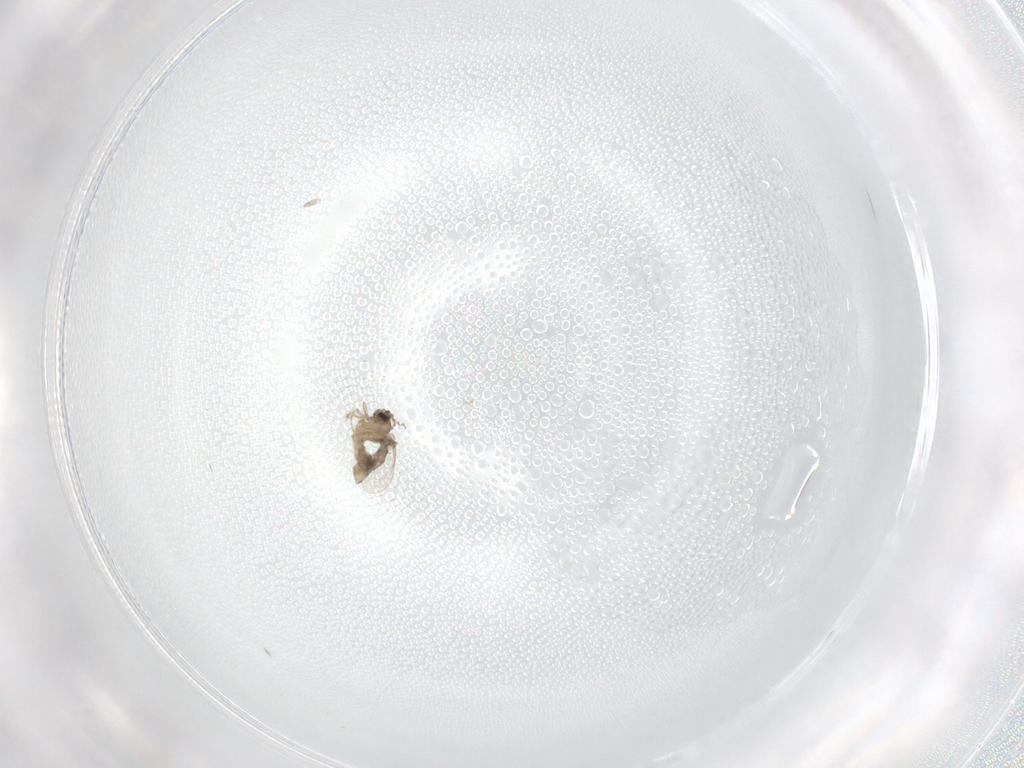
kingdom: Animalia
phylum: Arthropoda
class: Insecta
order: Diptera
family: Cecidomyiidae
